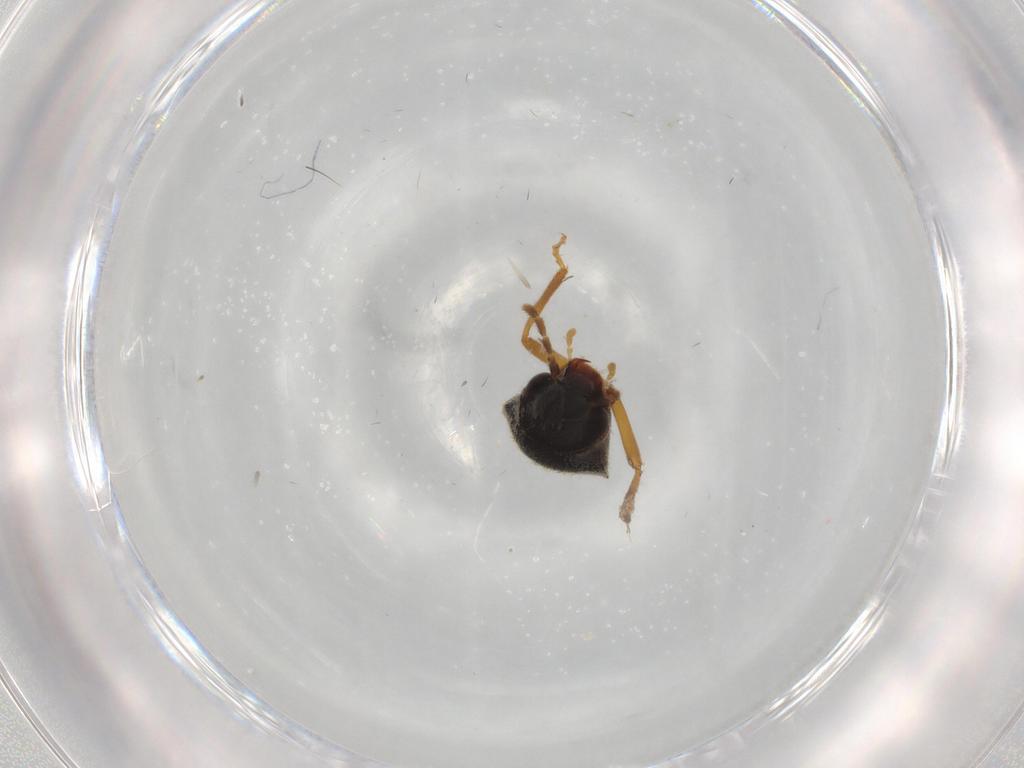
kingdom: Animalia
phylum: Arthropoda
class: Insecta
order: Coleoptera
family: Ptilodactylidae
